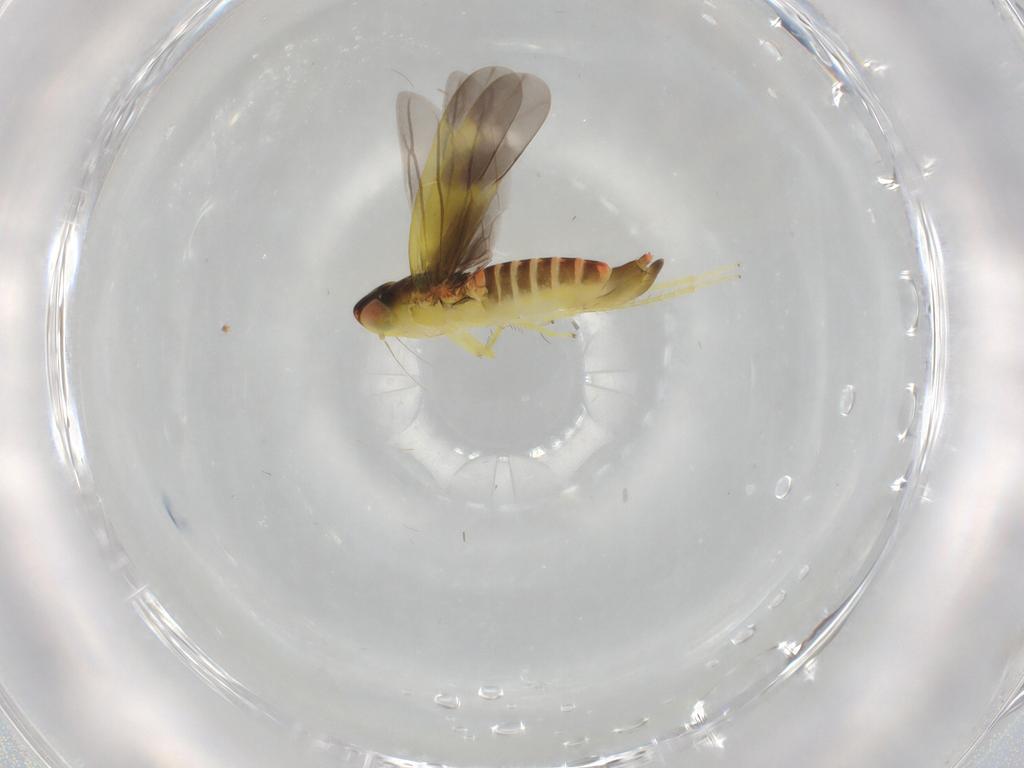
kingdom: Animalia
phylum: Arthropoda
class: Insecta
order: Hemiptera
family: Cicadellidae
